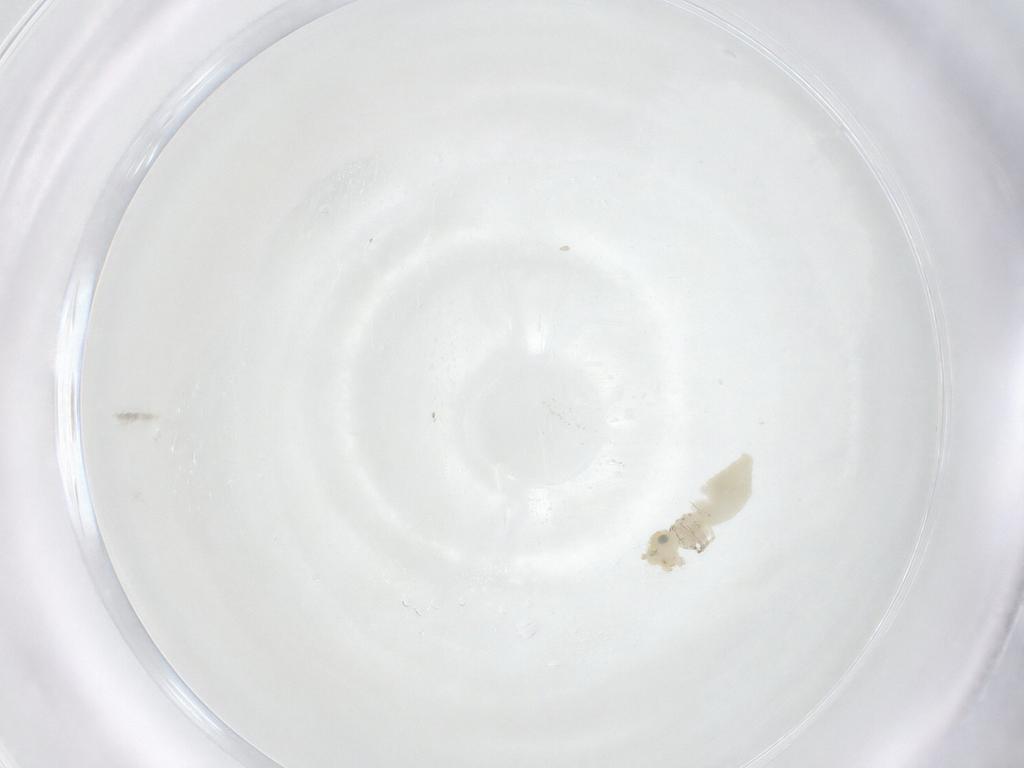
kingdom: Animalia
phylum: Arthropoda
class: Insecta
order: Psocodea
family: Caeciliusidae
